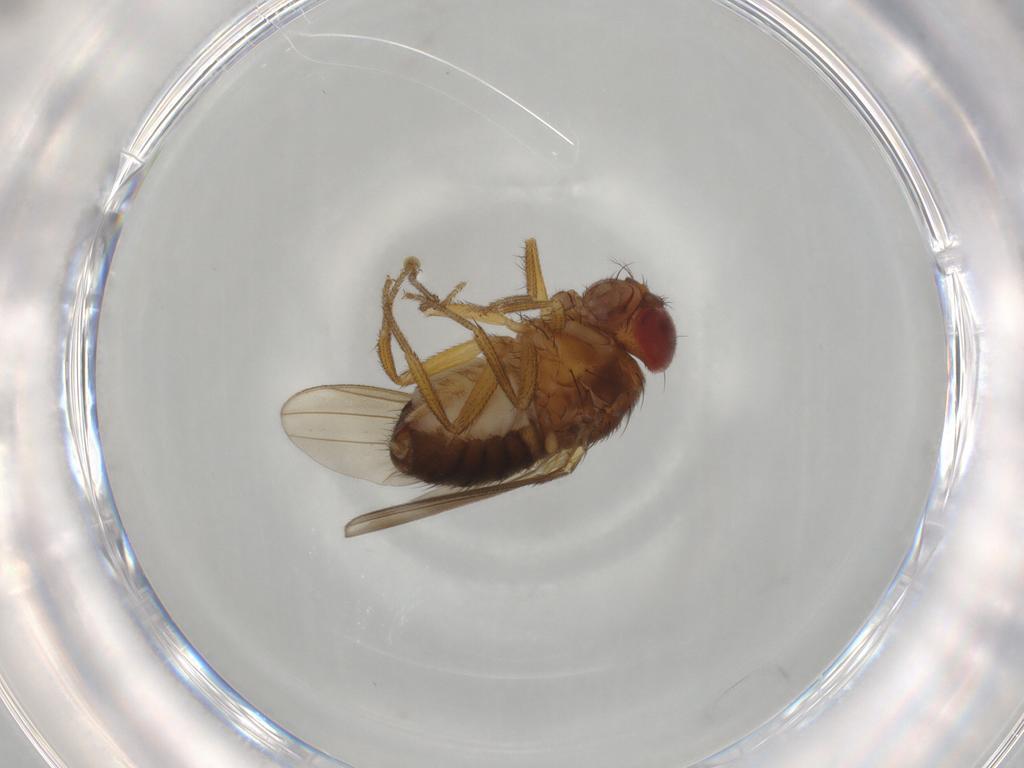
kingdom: Animalia
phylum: Arthropoda
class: Insecta
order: Diptera
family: Drosophilidae
